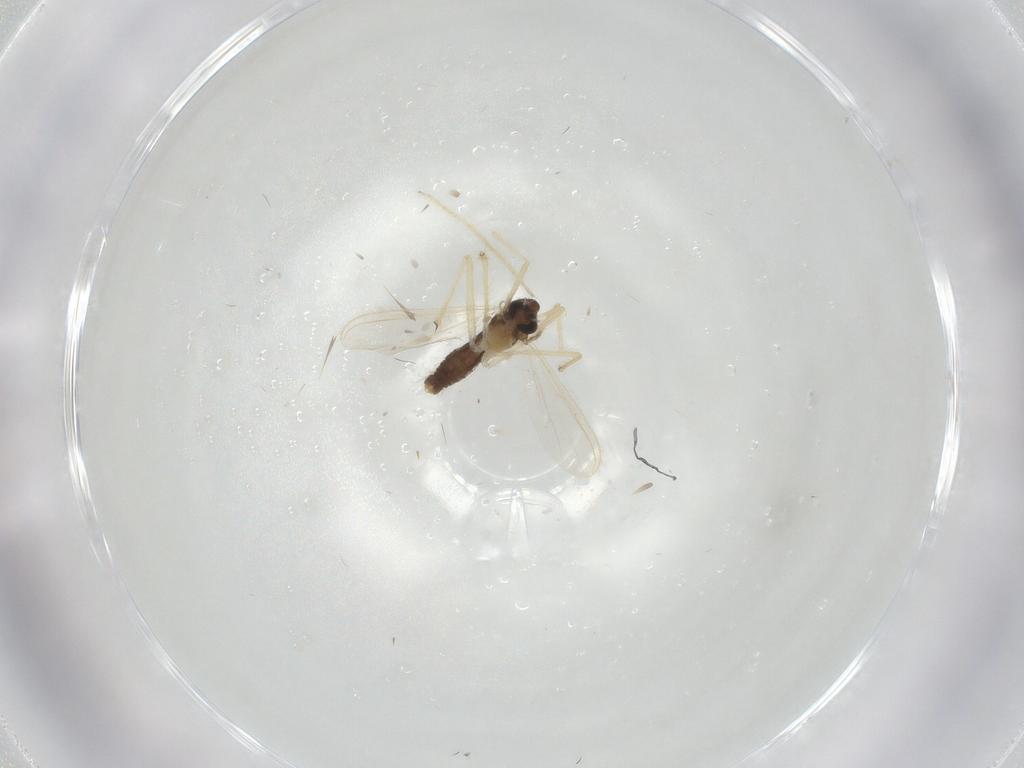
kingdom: Animalia
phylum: Arthropoda
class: Insecta
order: Diptera
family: Chironomidae
